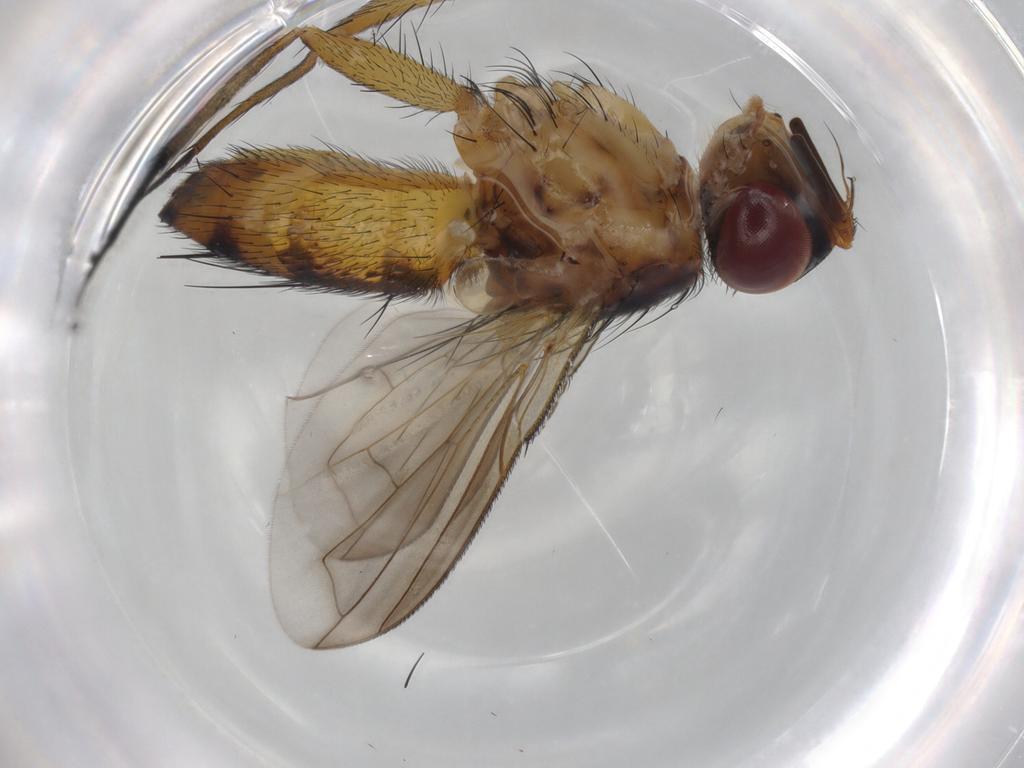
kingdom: Animalia
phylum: Arthropoda
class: Insecta
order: Diptera
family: Tachinidae
